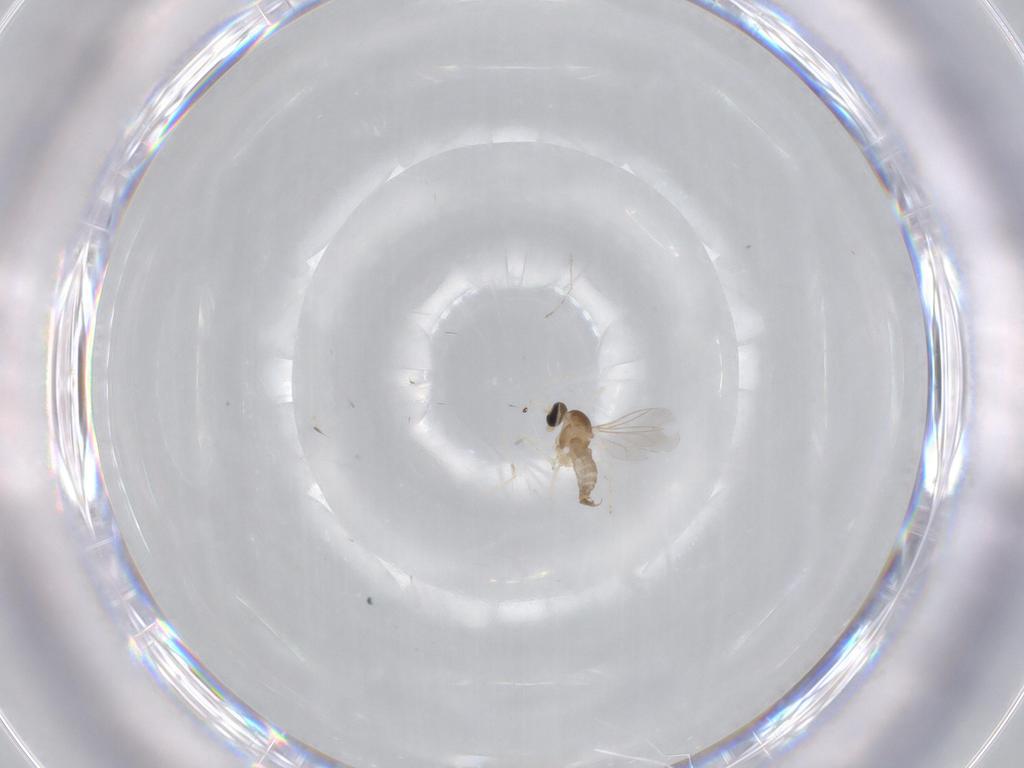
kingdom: Animalia
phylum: Arthropoda
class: Insecta
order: Diptera
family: Cecidomyiidae
